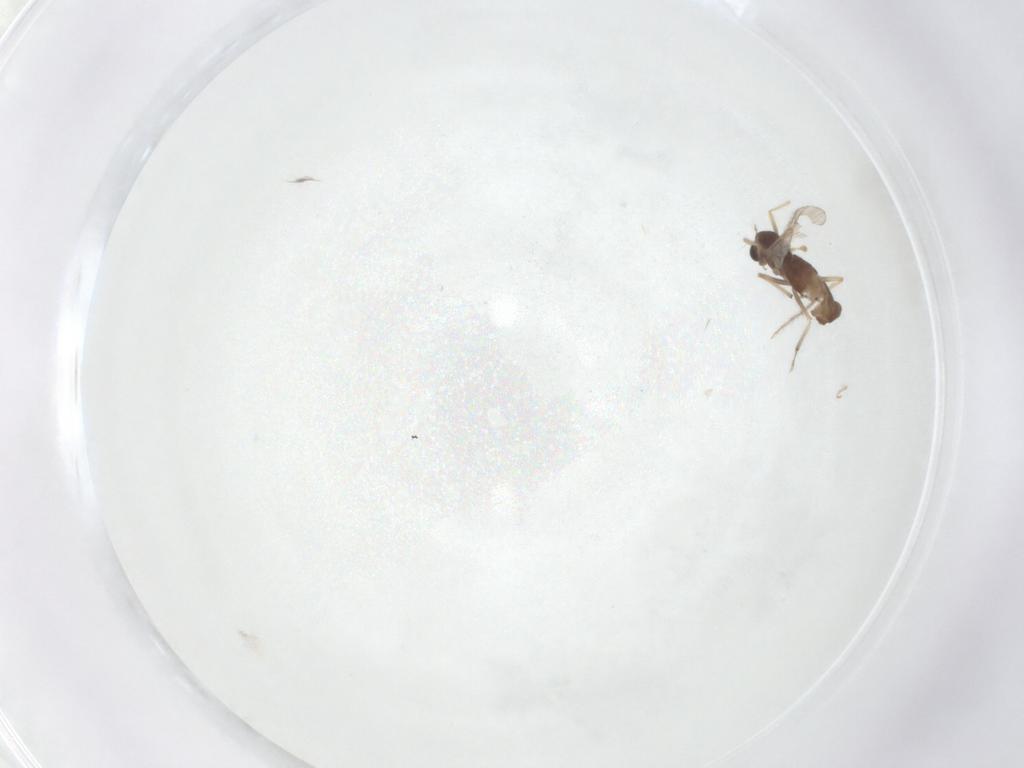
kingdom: Animalia
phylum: Arthropoda
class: Insecta
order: Diptera
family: Chironomidae
